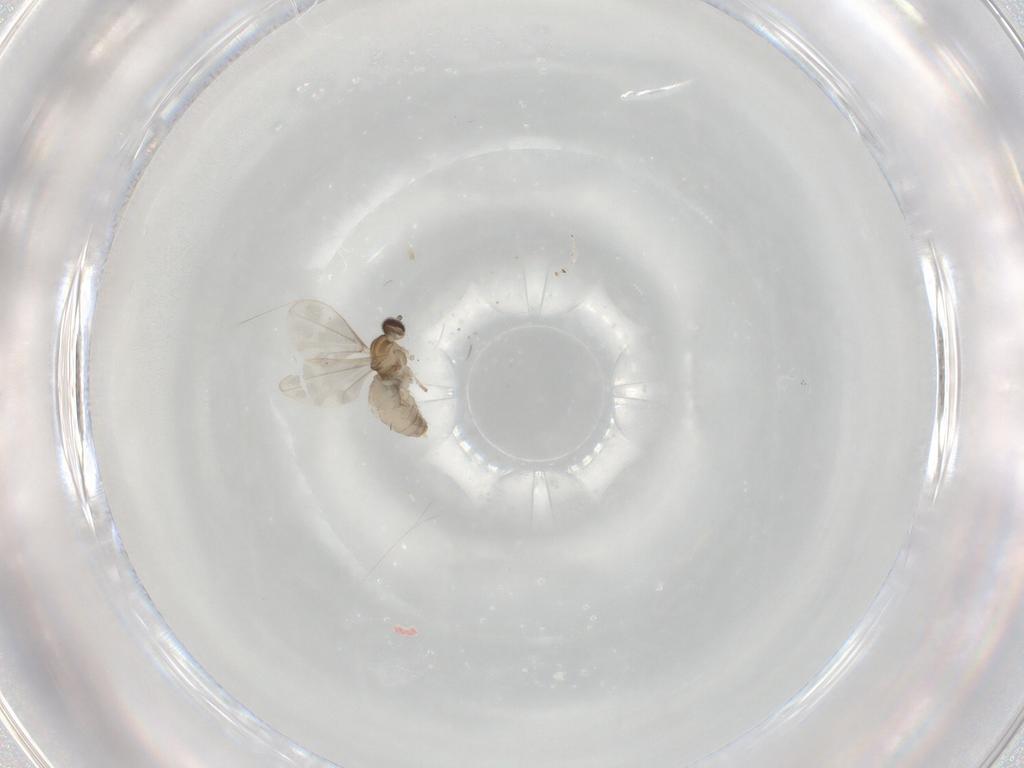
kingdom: Animalia
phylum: Arthropoda
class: Insecta
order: Diptera
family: Cecidomyiidae
